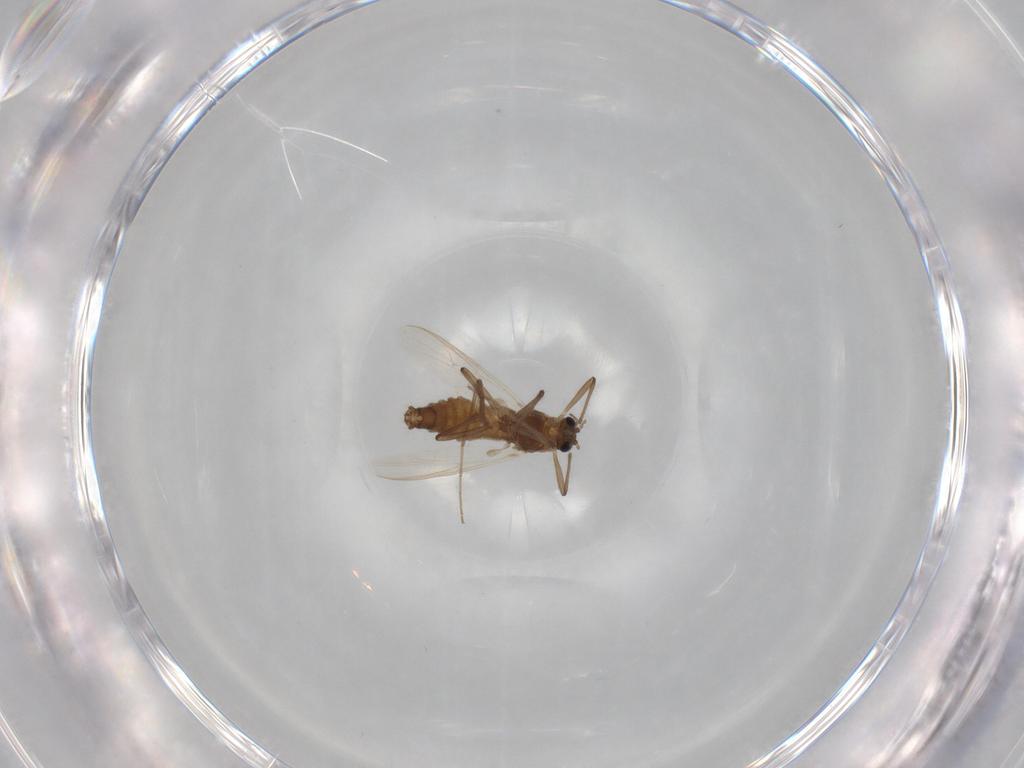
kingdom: Animalia
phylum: Arthropoda
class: Insecta
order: Diptera
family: Chironomidae
